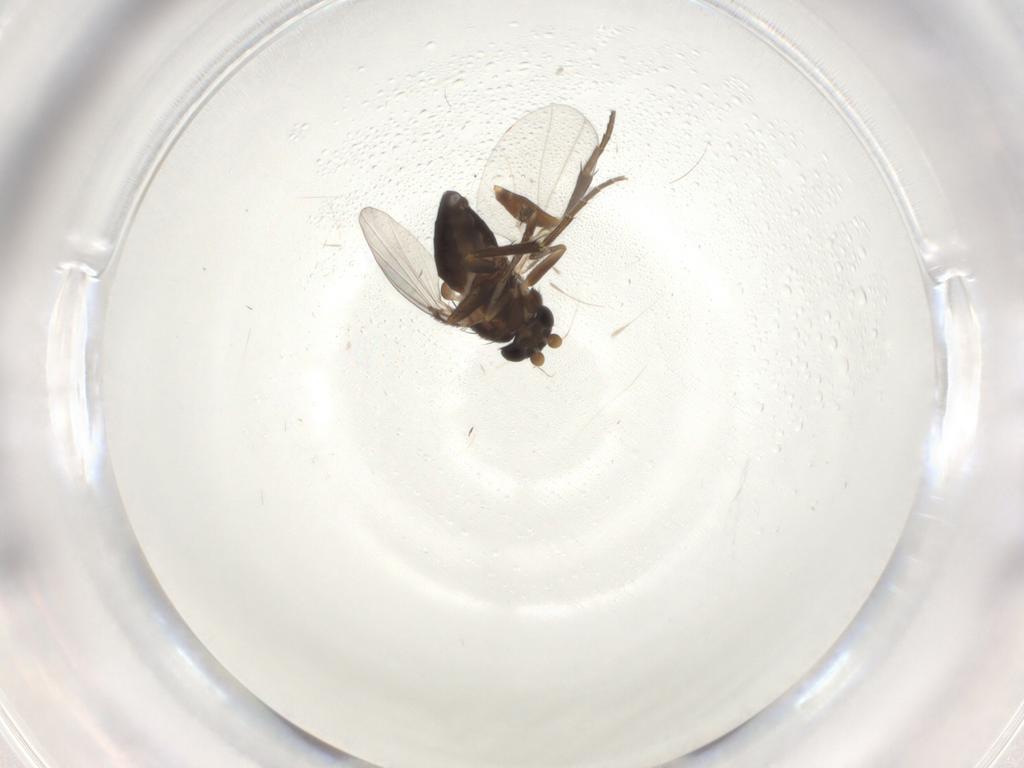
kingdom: Animalia
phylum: Arthropoda
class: Insecta
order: Diptera
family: Phoridae
